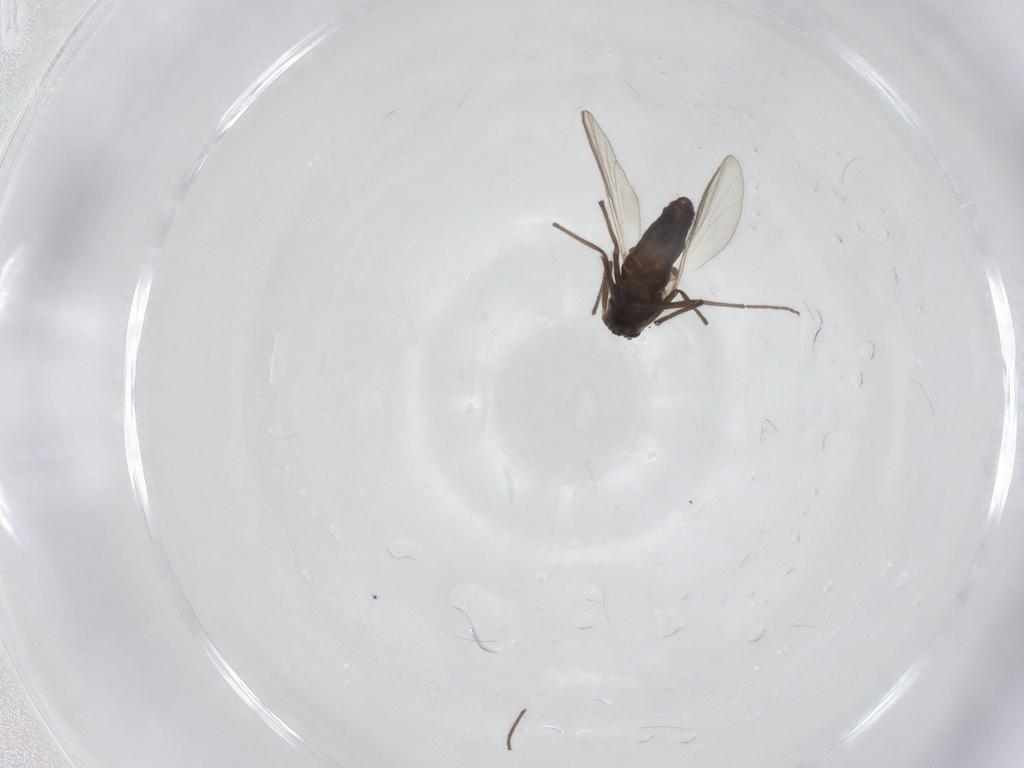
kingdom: Animalia
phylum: Arthropoda
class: Insecta
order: Diptera
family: Chironomidae
